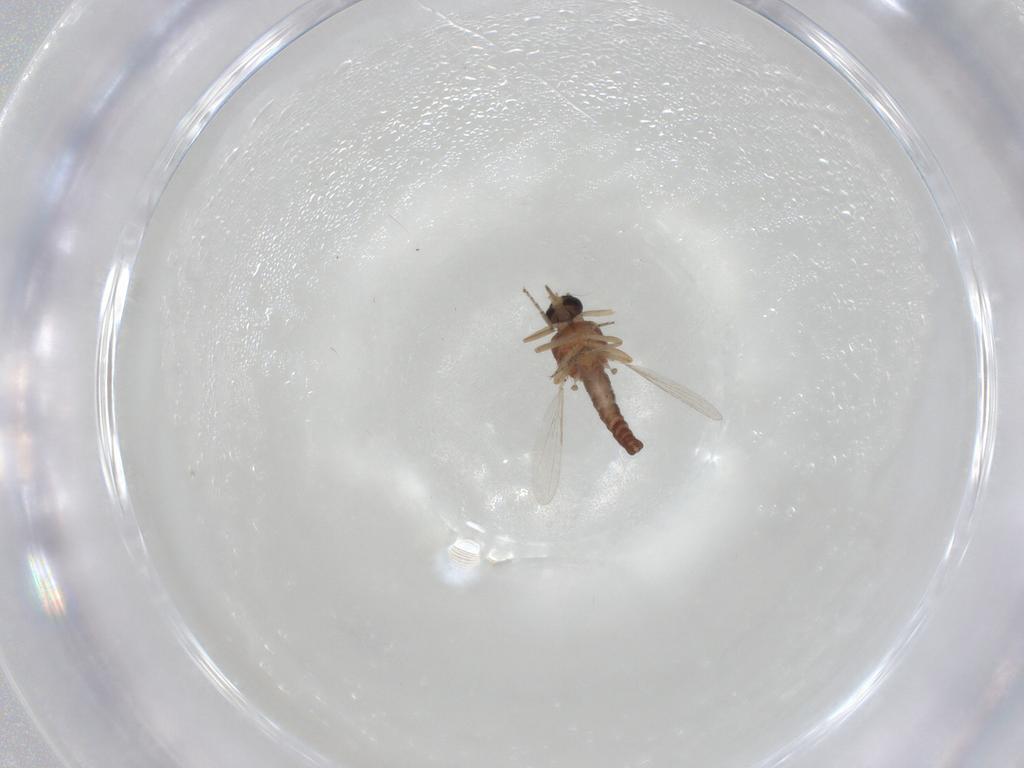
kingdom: Animalia
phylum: Arthropoda
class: Insecta
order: Diptera
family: Ceratopogonidae
